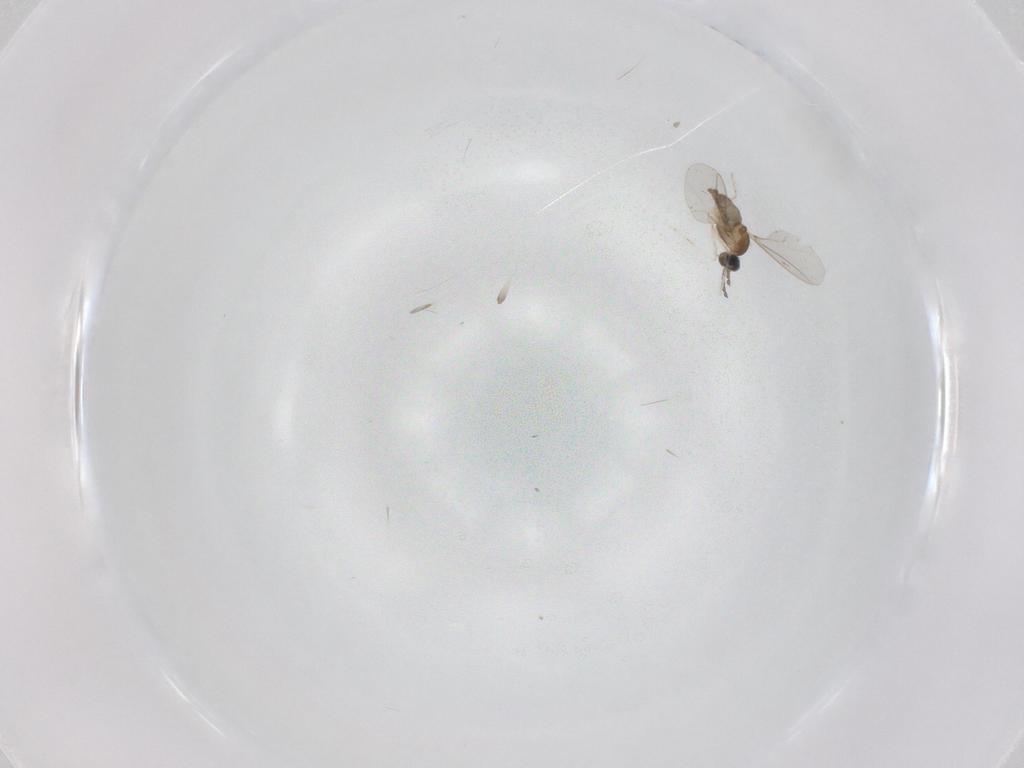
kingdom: Animalia
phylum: Arthropoda
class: Insecta
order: Diptera
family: Cecidomyiidae
